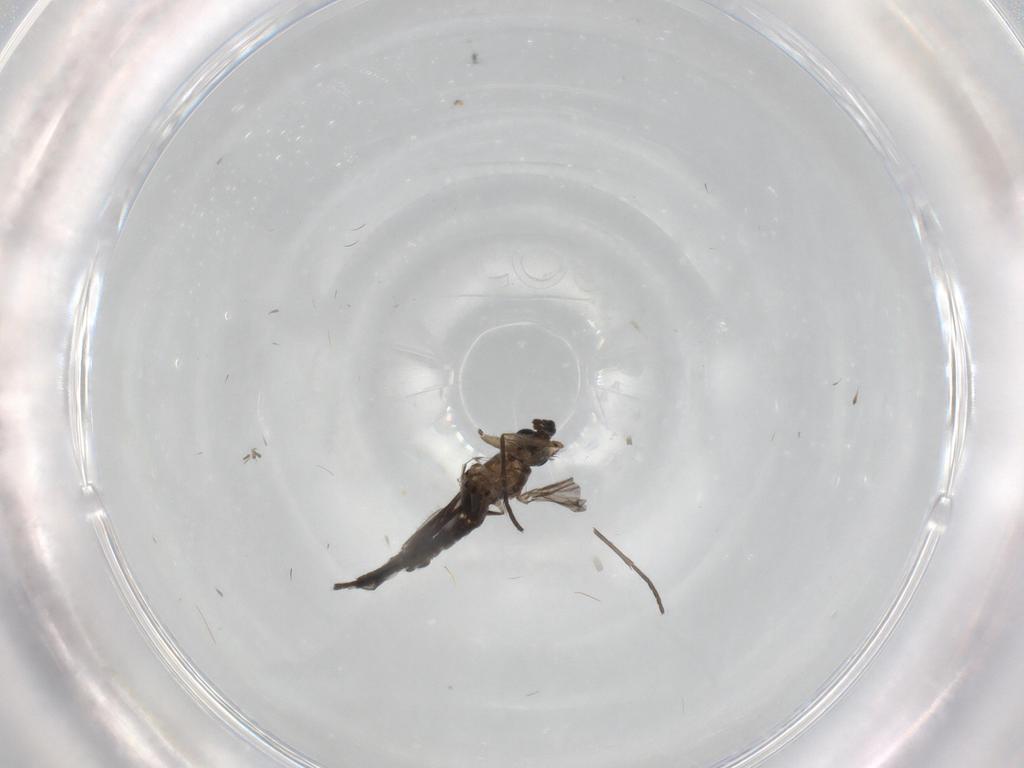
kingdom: Animalia
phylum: Arthropoda
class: Insecta
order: Diptera
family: Cecidomyiidae
